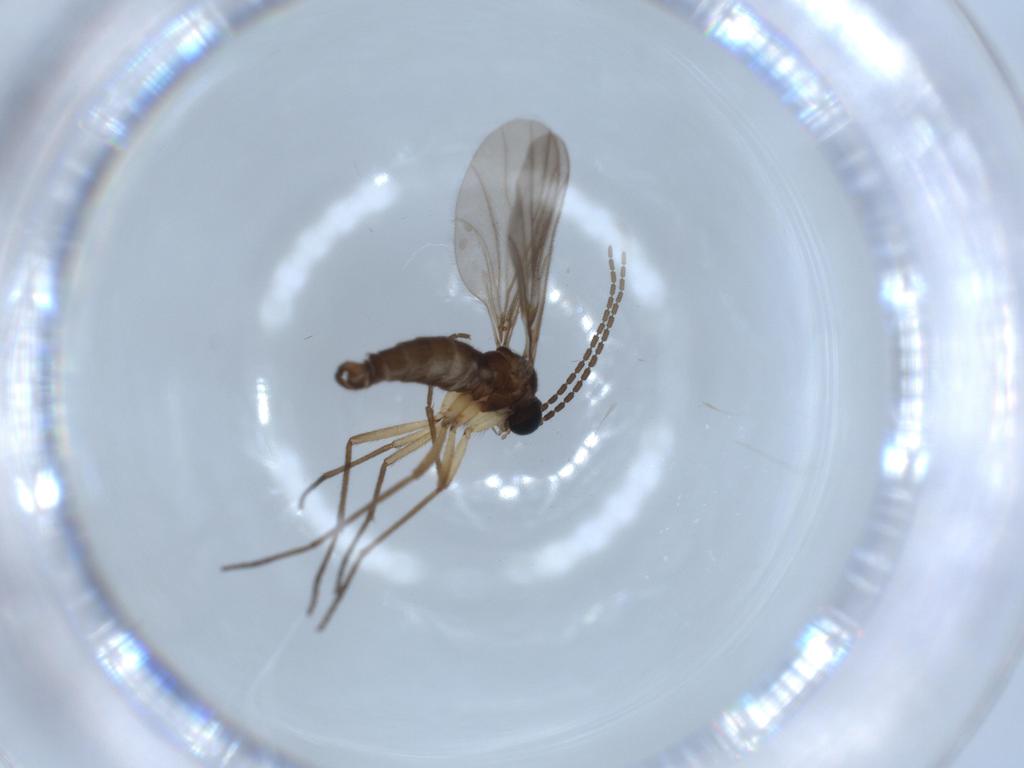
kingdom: Animalia
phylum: Arthropoda
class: Insecta
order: Diptera
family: Sciaridae
